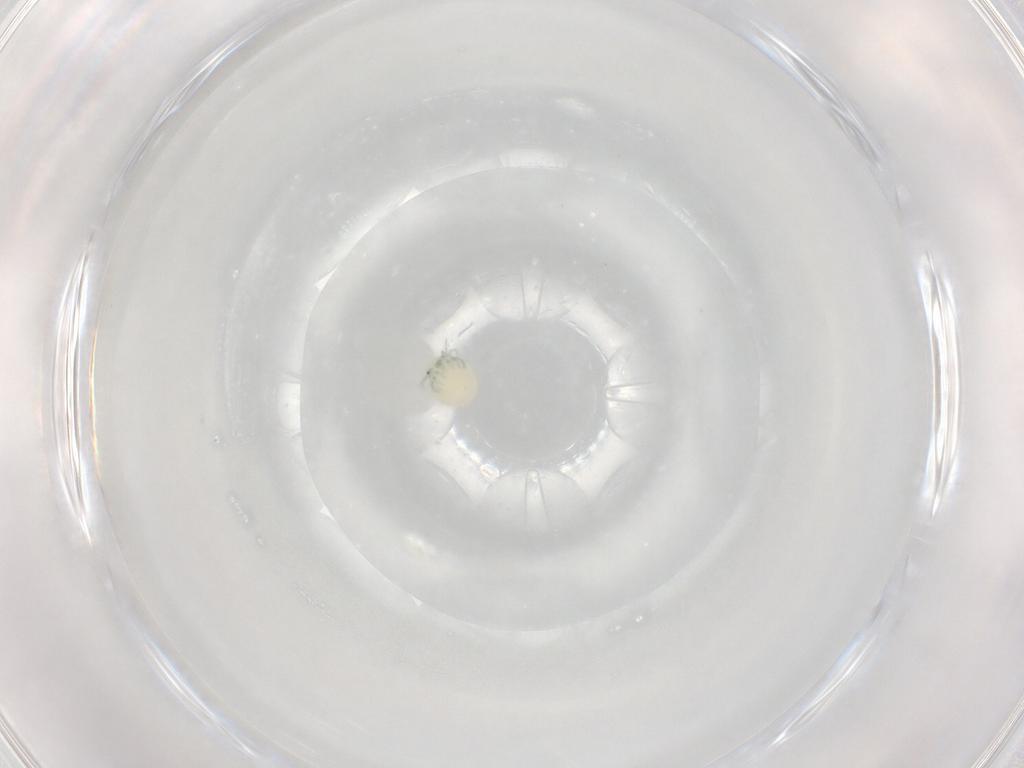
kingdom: Animalia
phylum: Arthropoda
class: Arachnida
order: Trombidiformes
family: Arrenuridae
